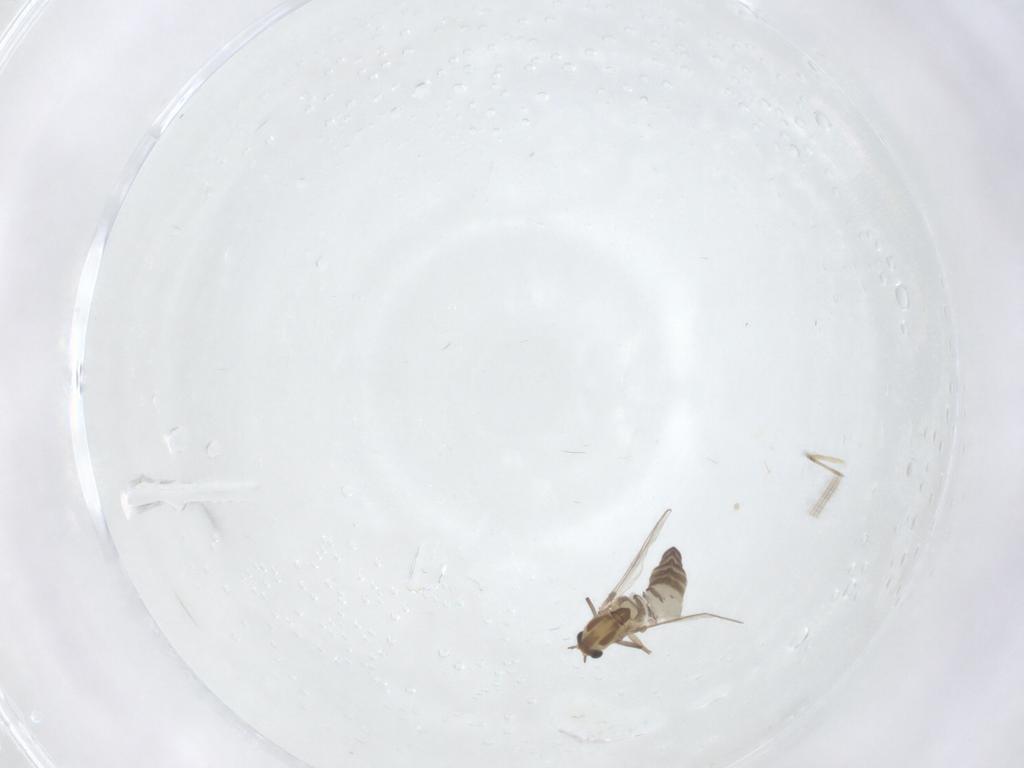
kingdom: Animalia
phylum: Arthropoda
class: Insecta
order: Diptera
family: Chironomidae
